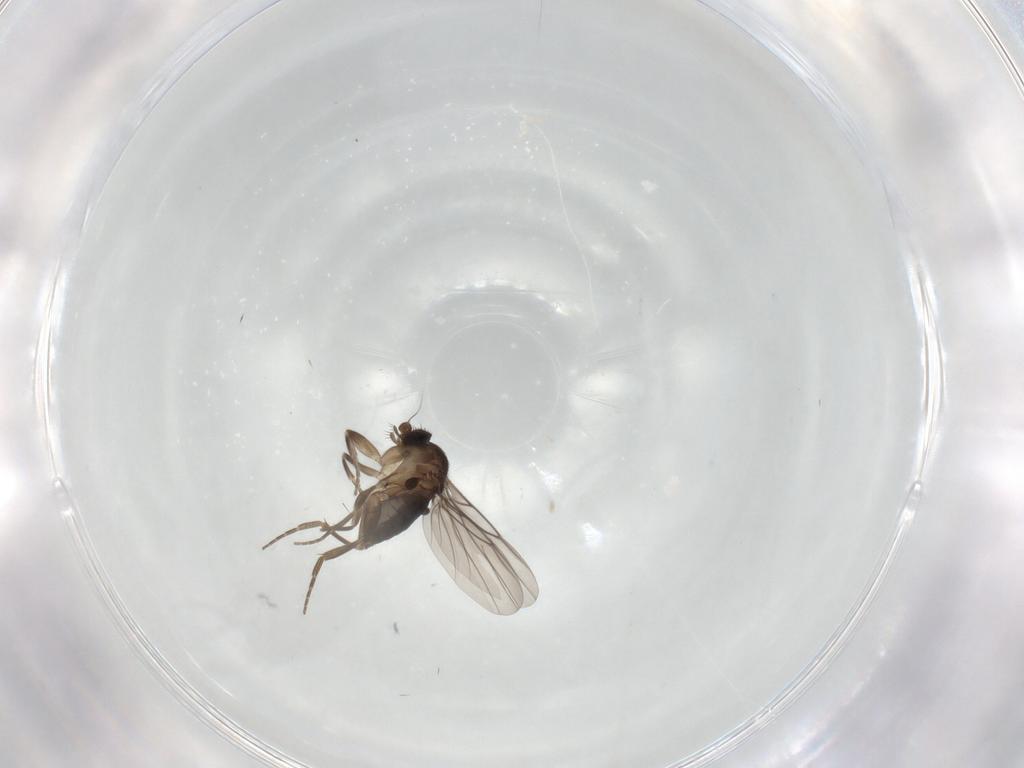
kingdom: Animalia
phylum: Arthropoda
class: Insecta
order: Diptera
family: Phoridae
